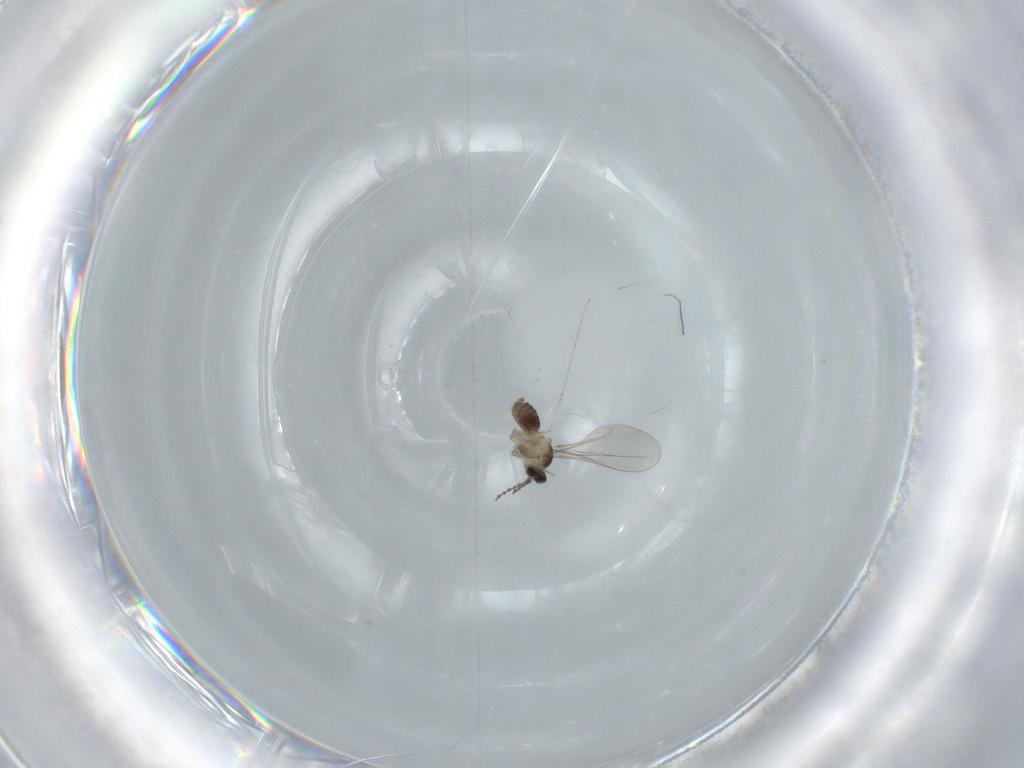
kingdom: Animalia
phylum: Arthropoda
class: Insecta
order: Diptera
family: Cecidomyiidae
